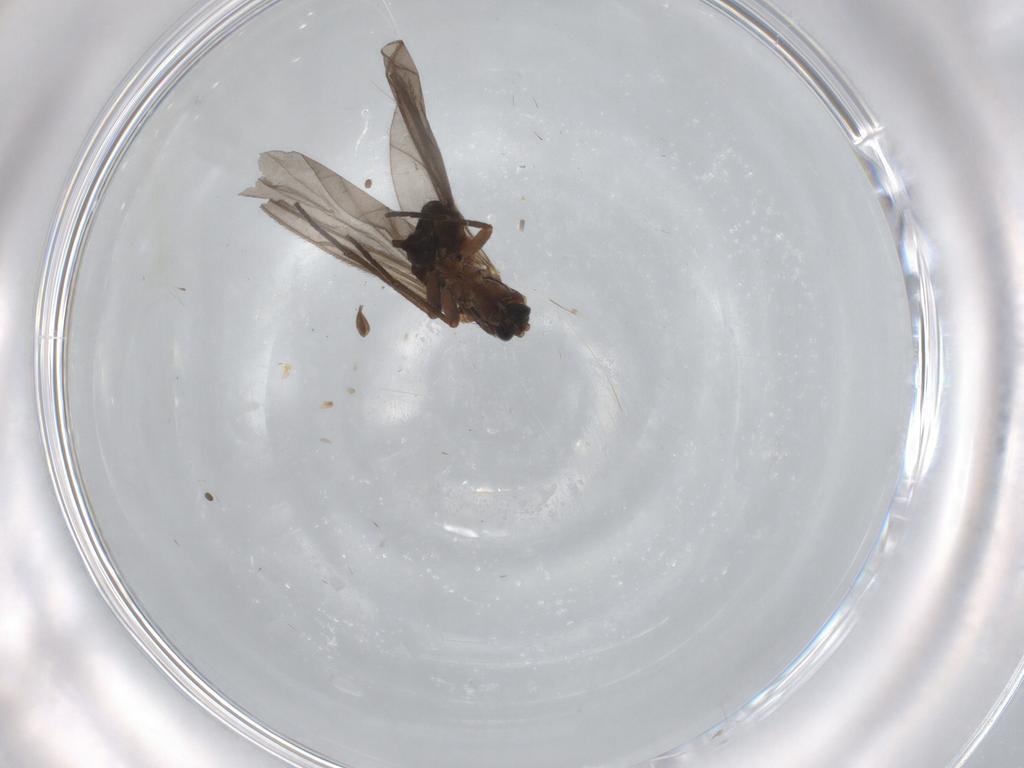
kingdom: Animalia
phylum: Arthropoda
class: Insecta
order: Diptera
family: Sciaridae
